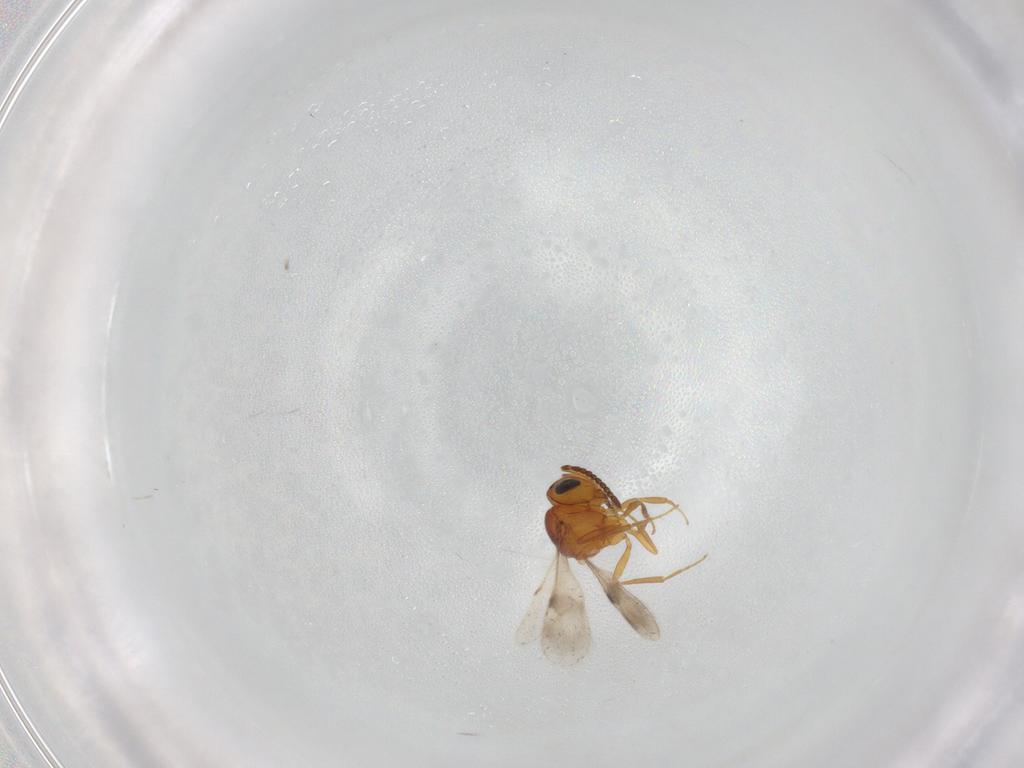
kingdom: Animalia
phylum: Arthropoda
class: Insecta
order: Hymenoptera
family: Scelionidae
